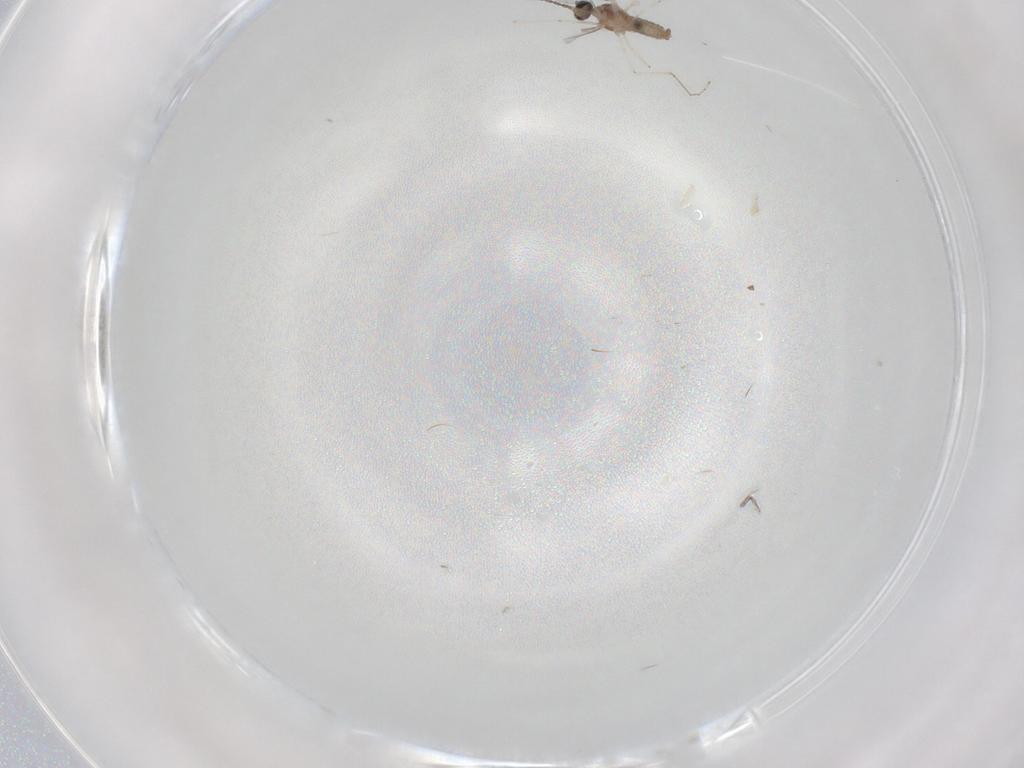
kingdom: Animalia
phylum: Arthropoda
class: Insecta
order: Diptera
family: Cecidomyiidae
